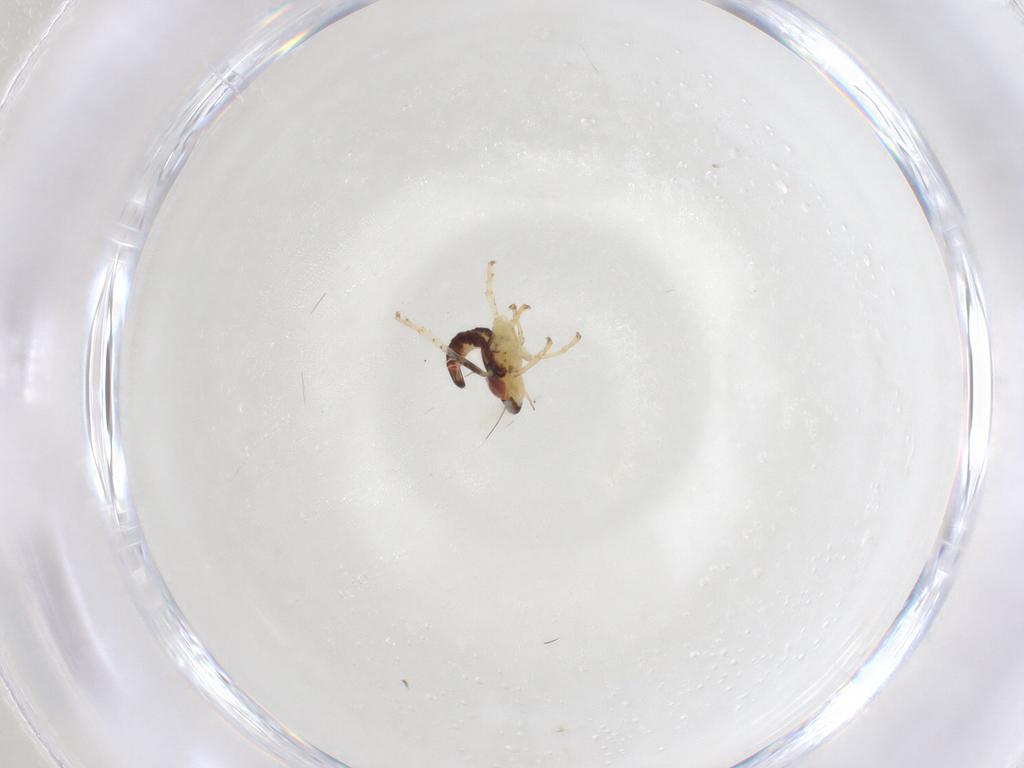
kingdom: Animalia
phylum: Arthropoda
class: Insecta
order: Hemiptera
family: Cicadellidae
